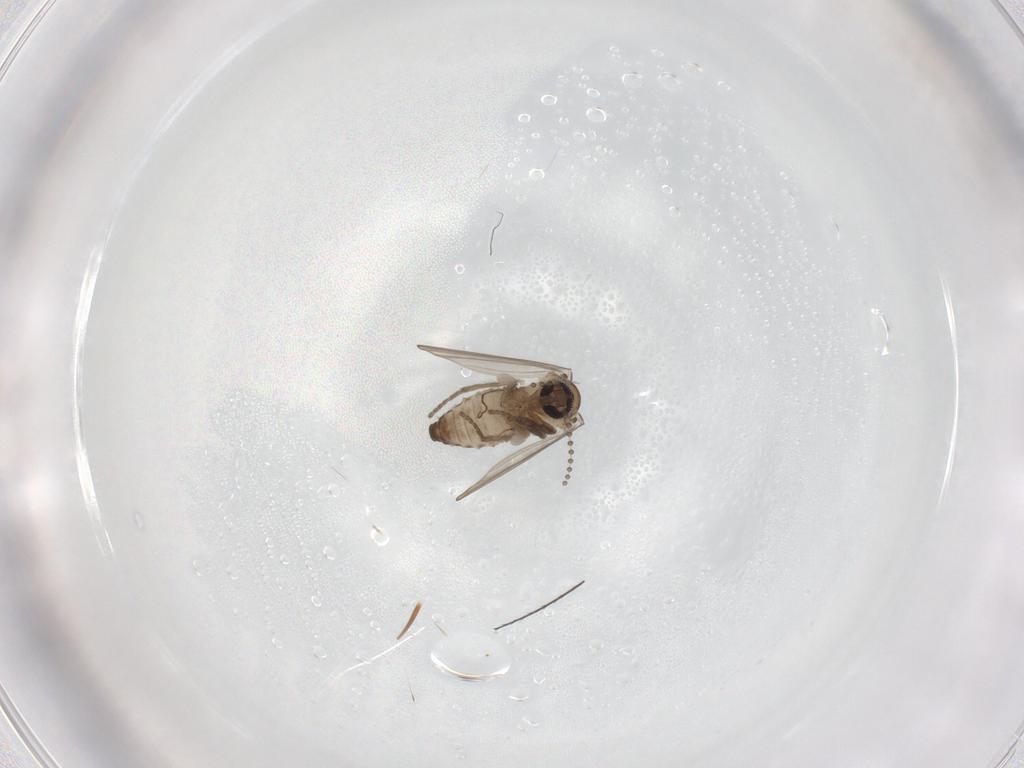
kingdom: Animalia
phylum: Arthropoda
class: Insecta
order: Diptera
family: Psychodidae
